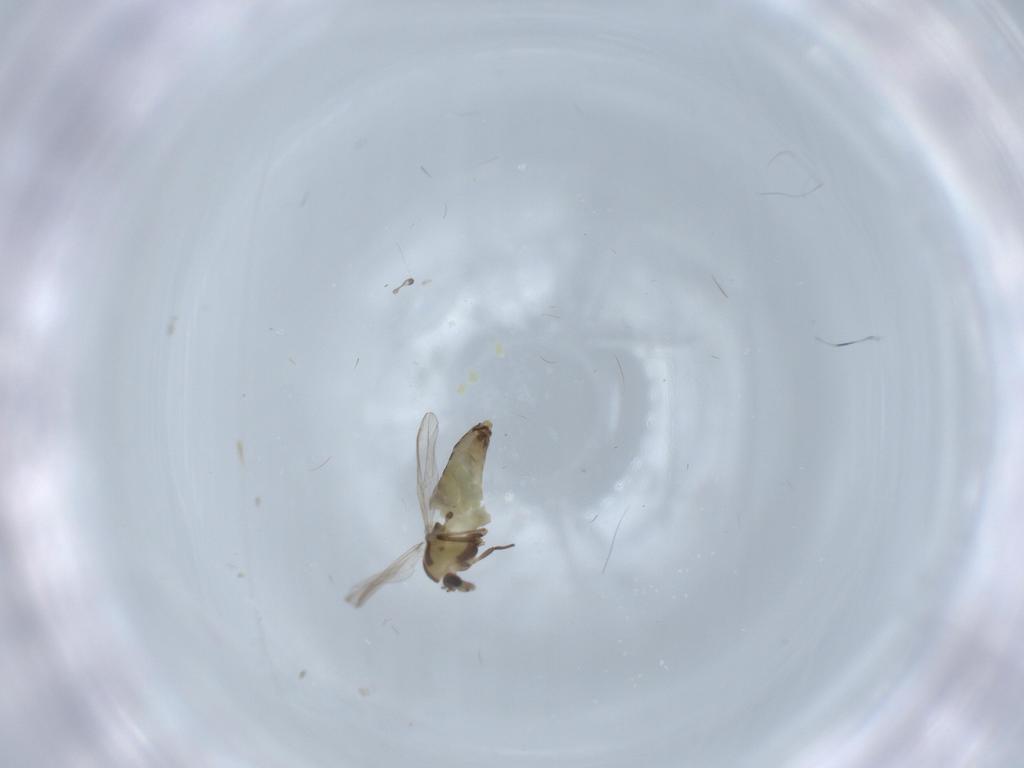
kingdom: Animalia
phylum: Arthropoda
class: Insecta
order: Diptera
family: Chironomidae
